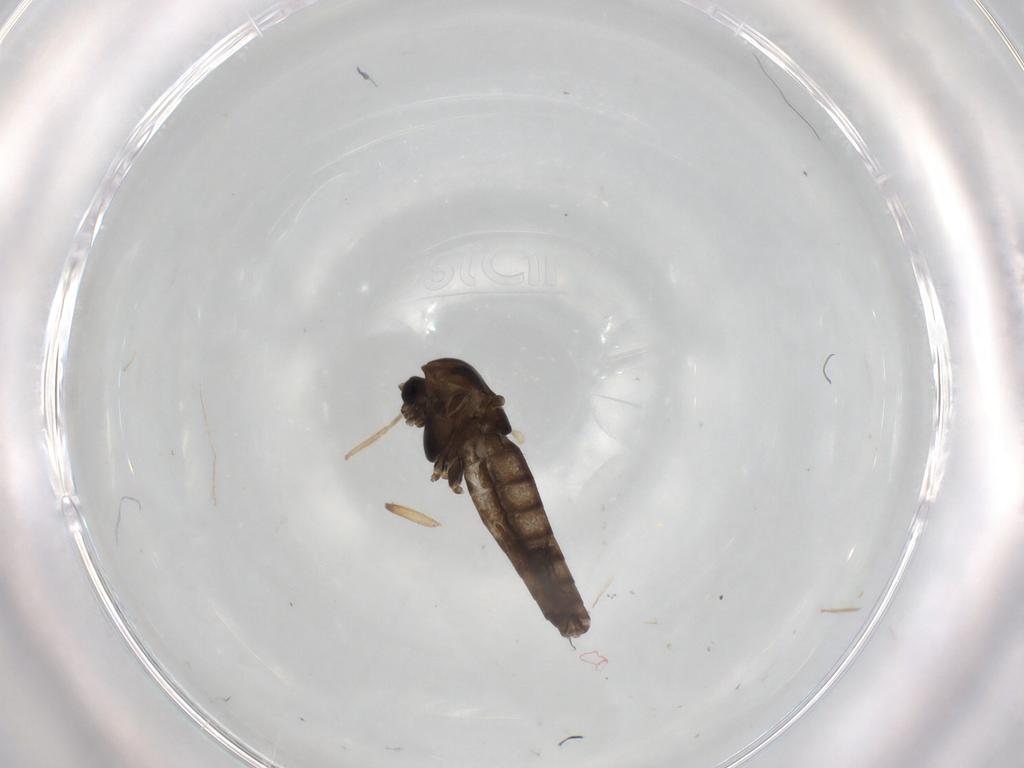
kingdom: Animalia
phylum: Arthropoda
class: Insecta
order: Diptera
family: Chironomidae
